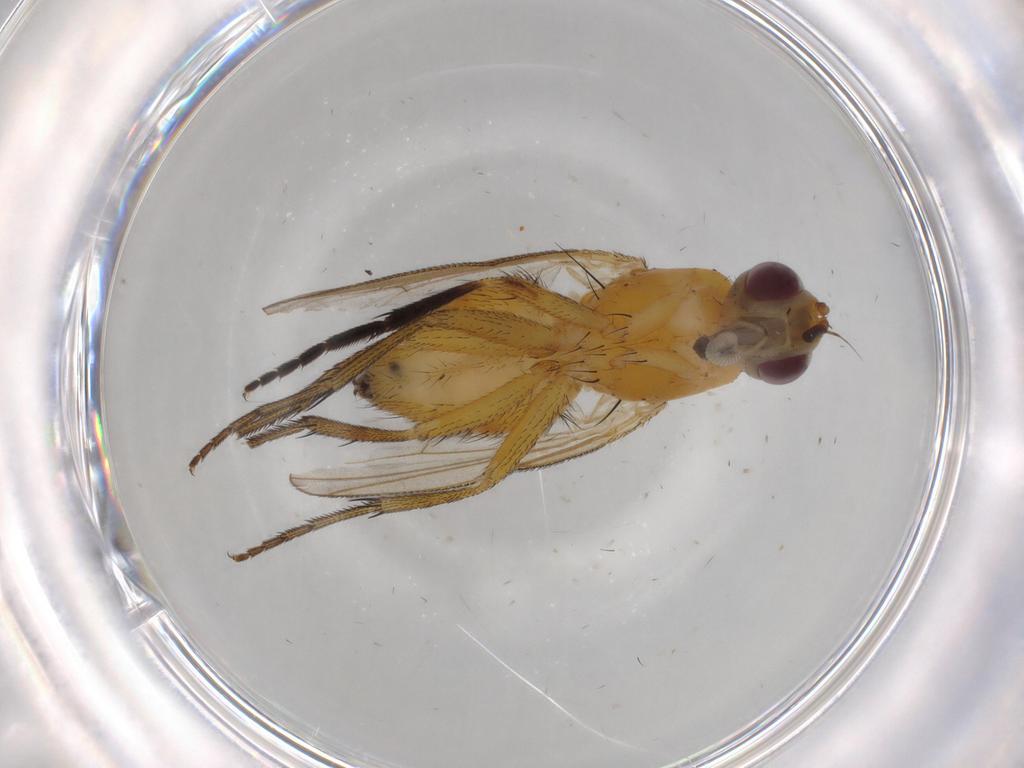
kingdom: Animalia
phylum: Arthropoda
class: Insecta
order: Diptera
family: Muscidae
